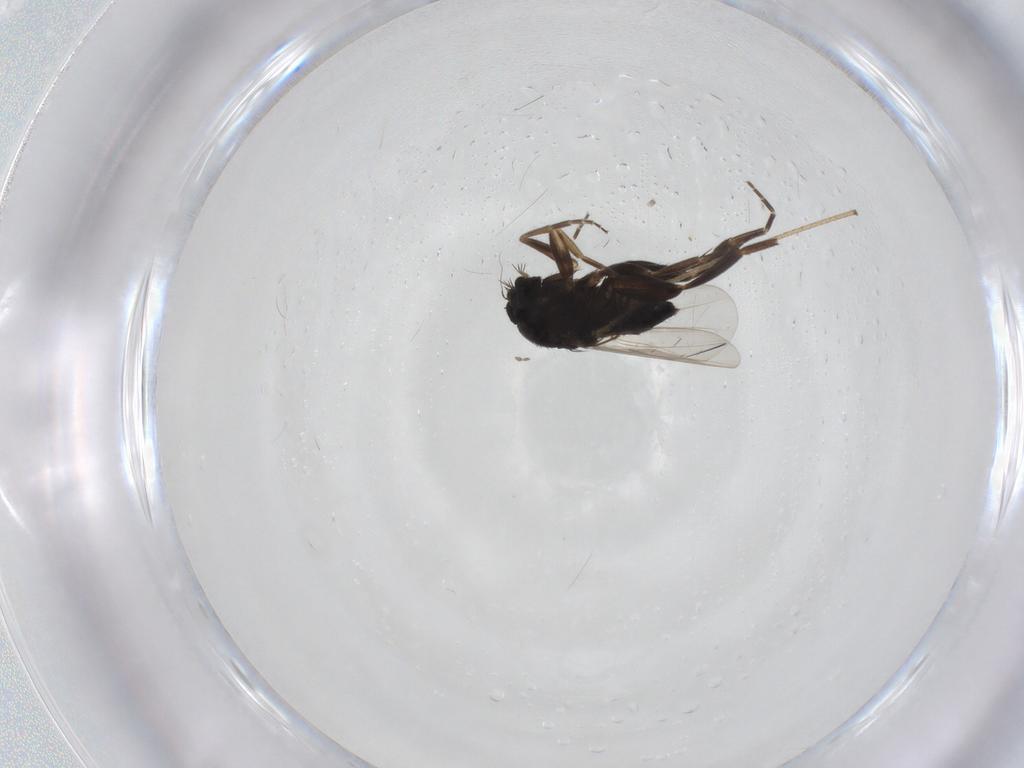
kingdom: Animalia
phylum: Arthropoda
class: Insecta
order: Diptera
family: Phoridae
